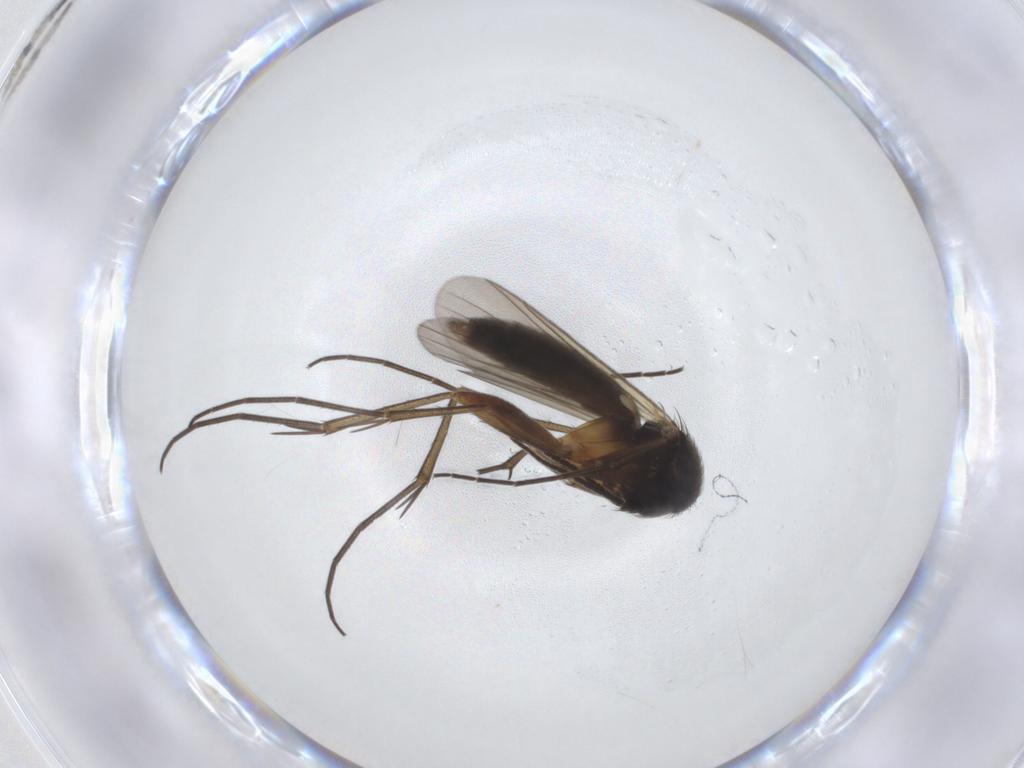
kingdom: Animalia
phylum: Arthropoda
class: Insecta
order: Diptera
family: Mycetophilidae
